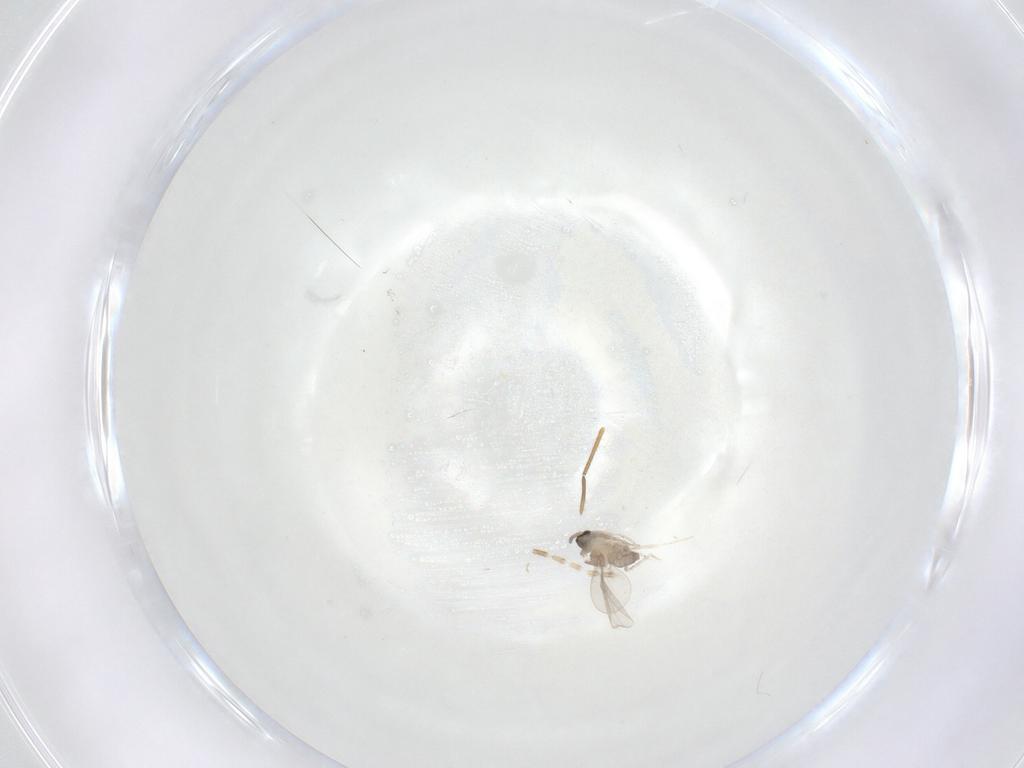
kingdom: Animalia
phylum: Arthropoda
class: Insecta
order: Diptera
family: Cecidomyiidae
